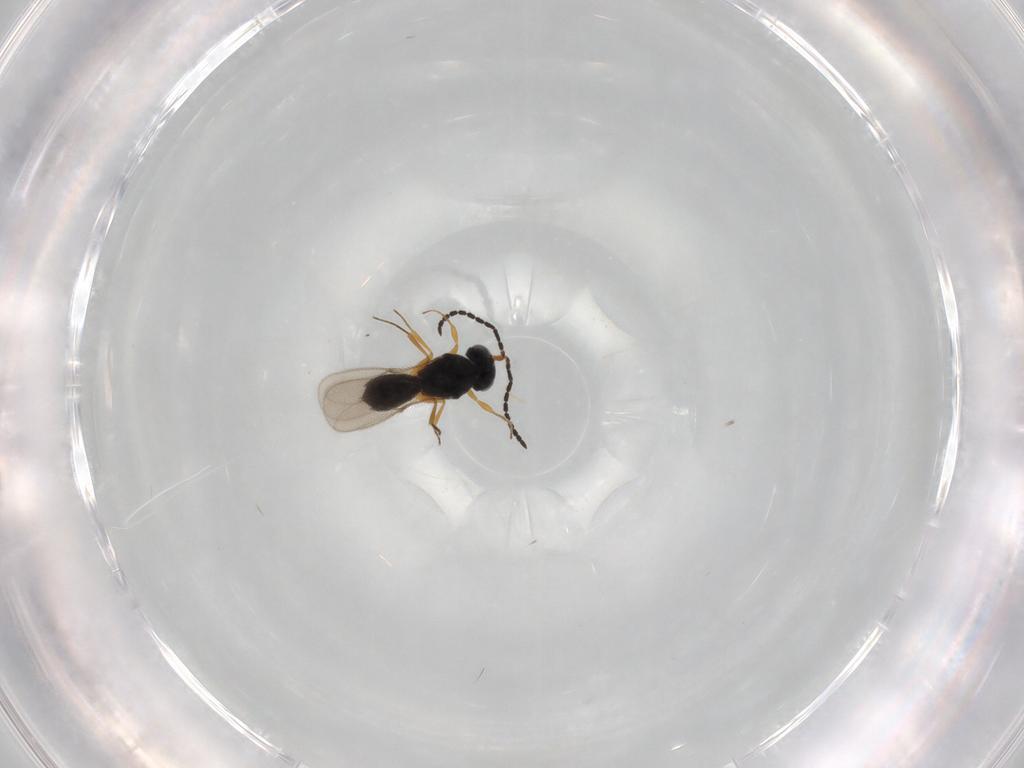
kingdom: Animalia
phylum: Arthropoda
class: Insecta
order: Hymenoptera
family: Scelionidae
